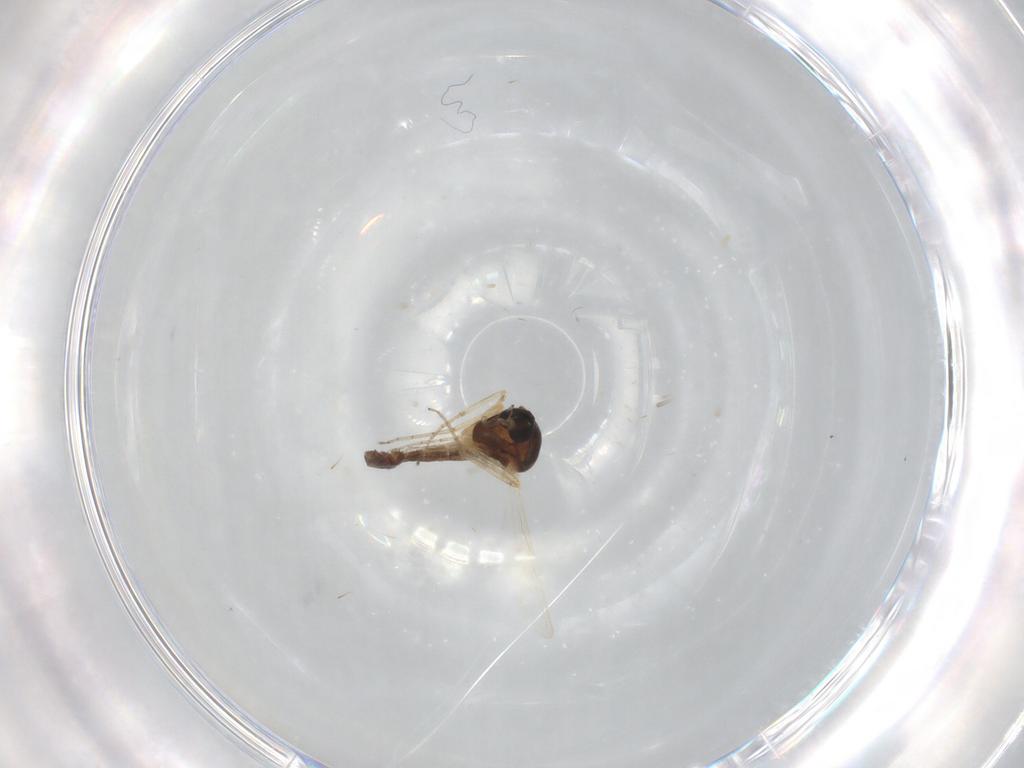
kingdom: Animalia
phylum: Arthropoda
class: Insecta
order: Diptera
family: Ceratopogonidae
